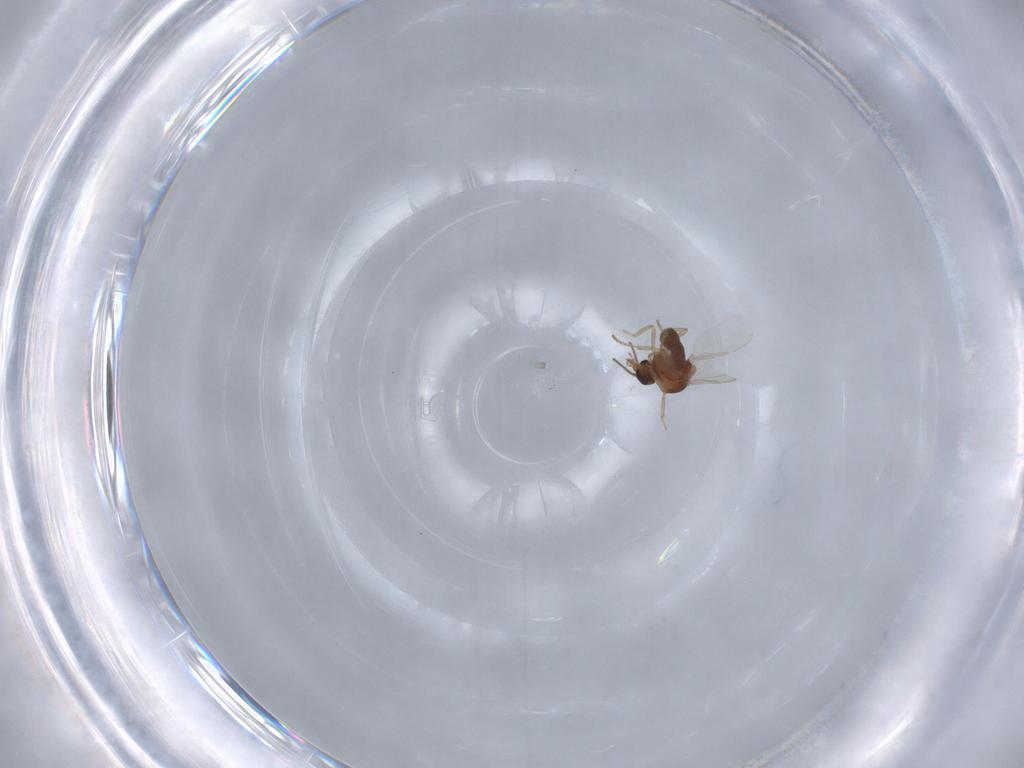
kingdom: Animalia
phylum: Arthropoda
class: Insecta
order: Diptera
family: Ceratopogonidae
